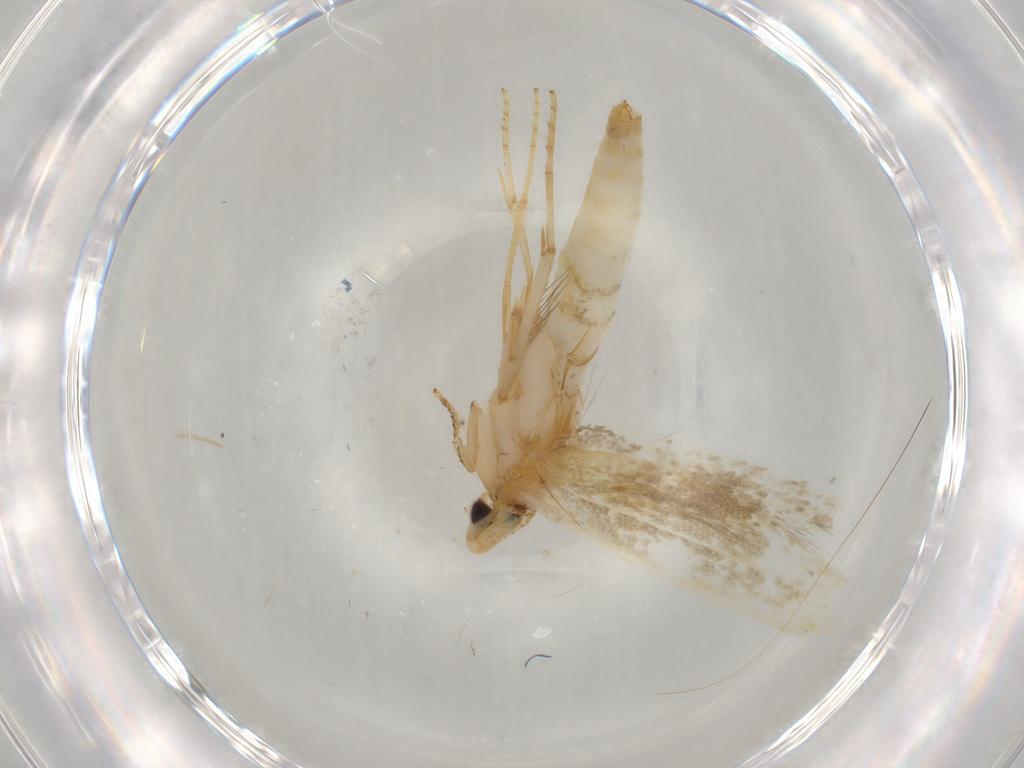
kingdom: Animalia
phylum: Arthropoda
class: Insecta
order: Lepidoptera
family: Tineidae
